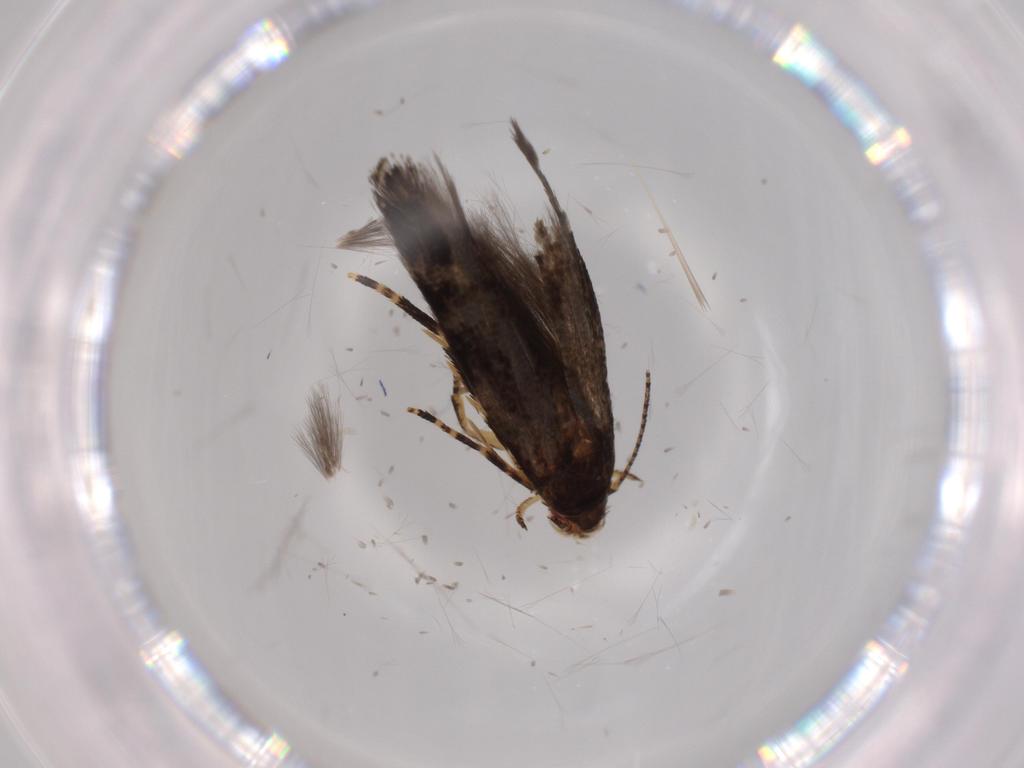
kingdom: Animalia
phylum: Arthropoda
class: Insecta
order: Lepidoptera
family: Momphidae
